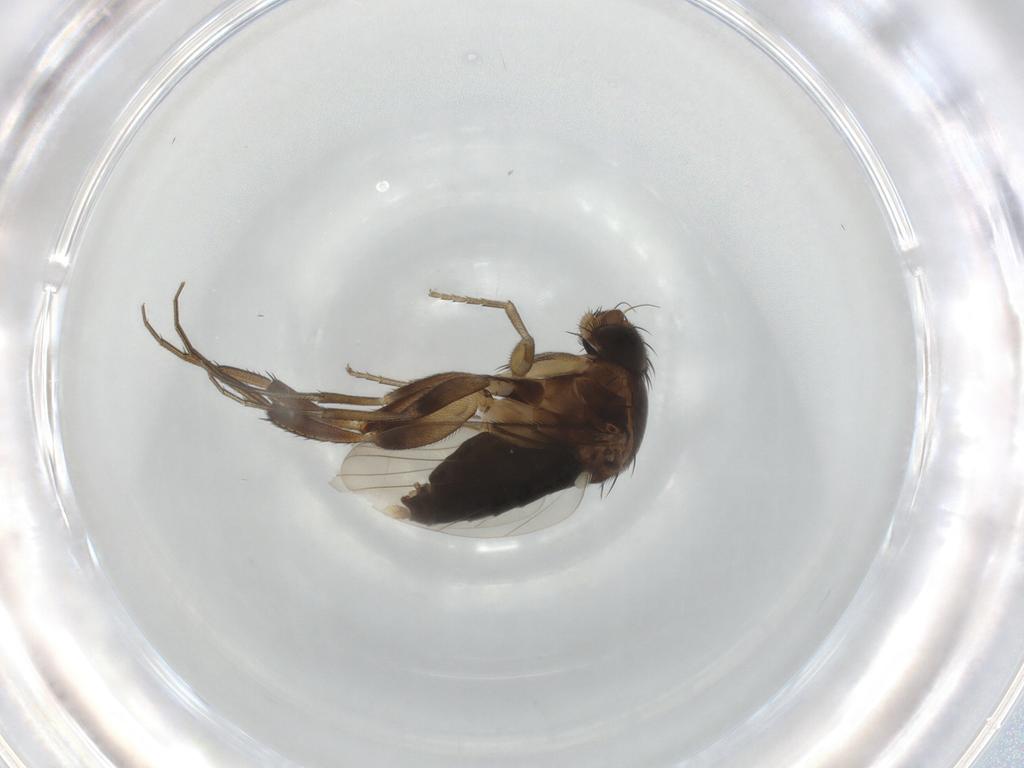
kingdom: Animalia
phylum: Arthropoda
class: Insecta
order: Diptera
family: Phoridae
